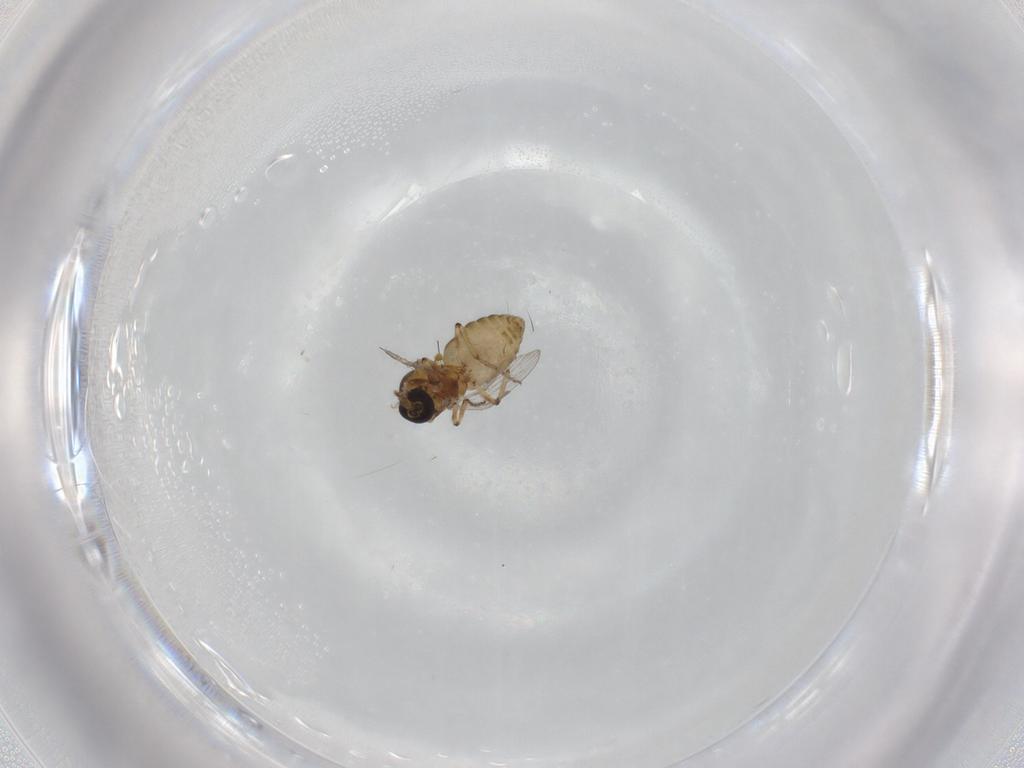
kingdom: Animalia
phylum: Arthropoda
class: Insecta
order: Diptera
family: Ceratopogonidae
